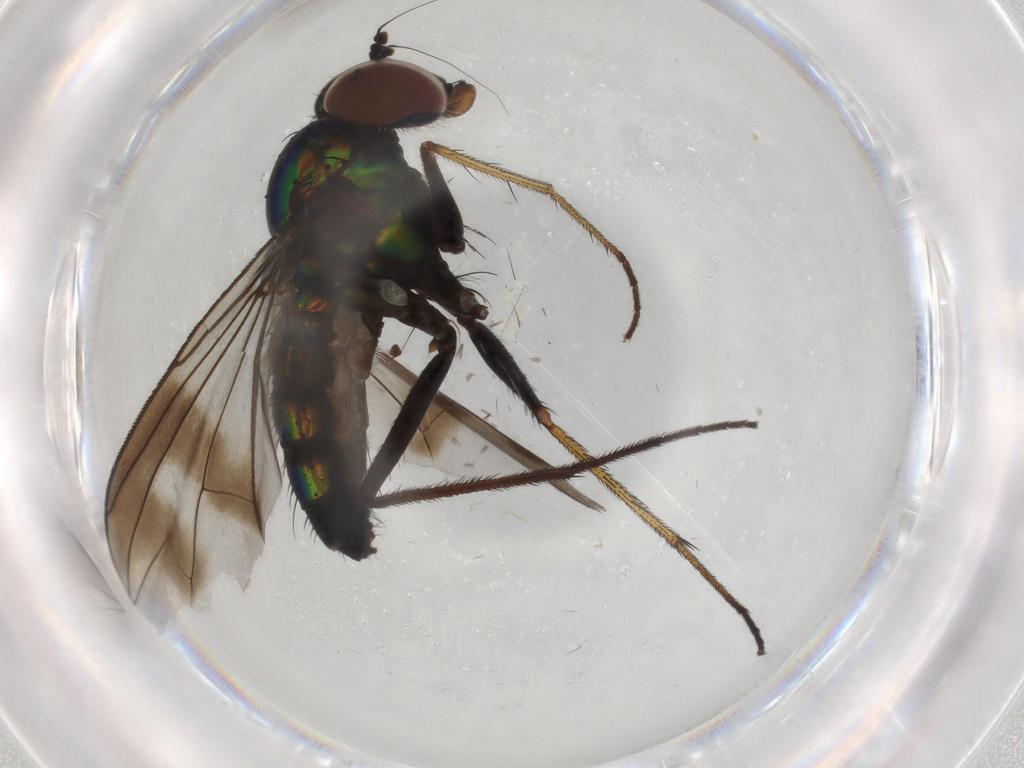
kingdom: Animalia
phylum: Arthropoda
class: Insecta
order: Diptera
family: Dolichopodidae
